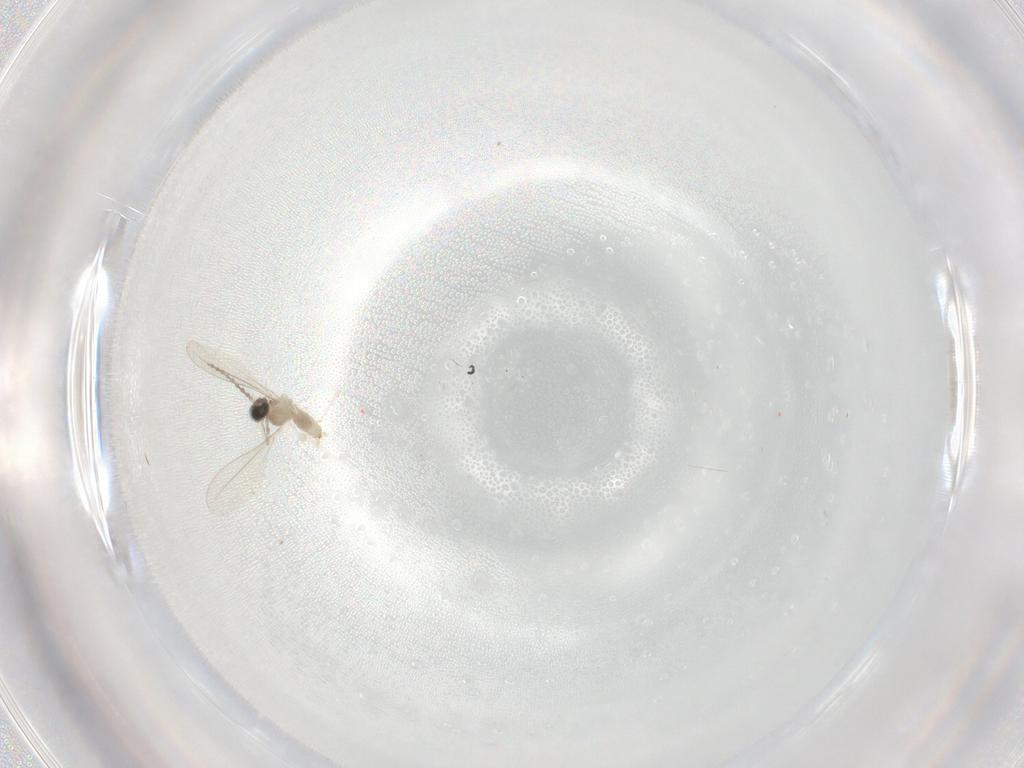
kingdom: Animalia
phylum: Arthropoda
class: Insecta
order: Diptera
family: Cecidomyiidae
